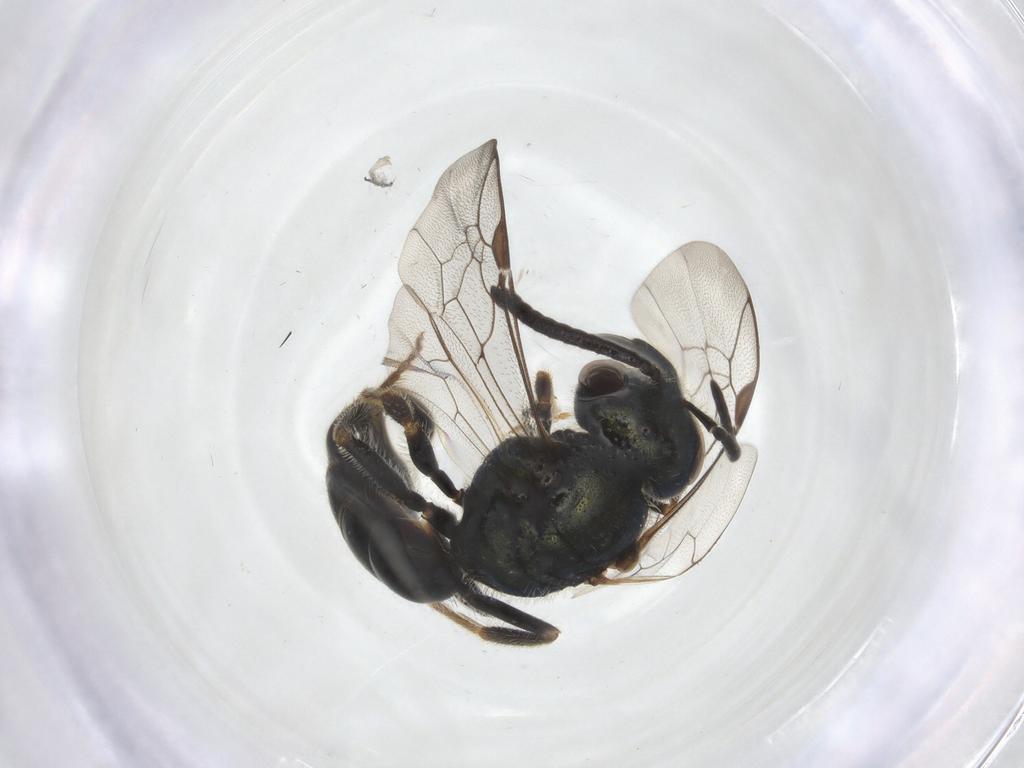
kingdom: Animalia
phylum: Arthropoda
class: Insecta
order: Hymenoptera
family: Halictidae
